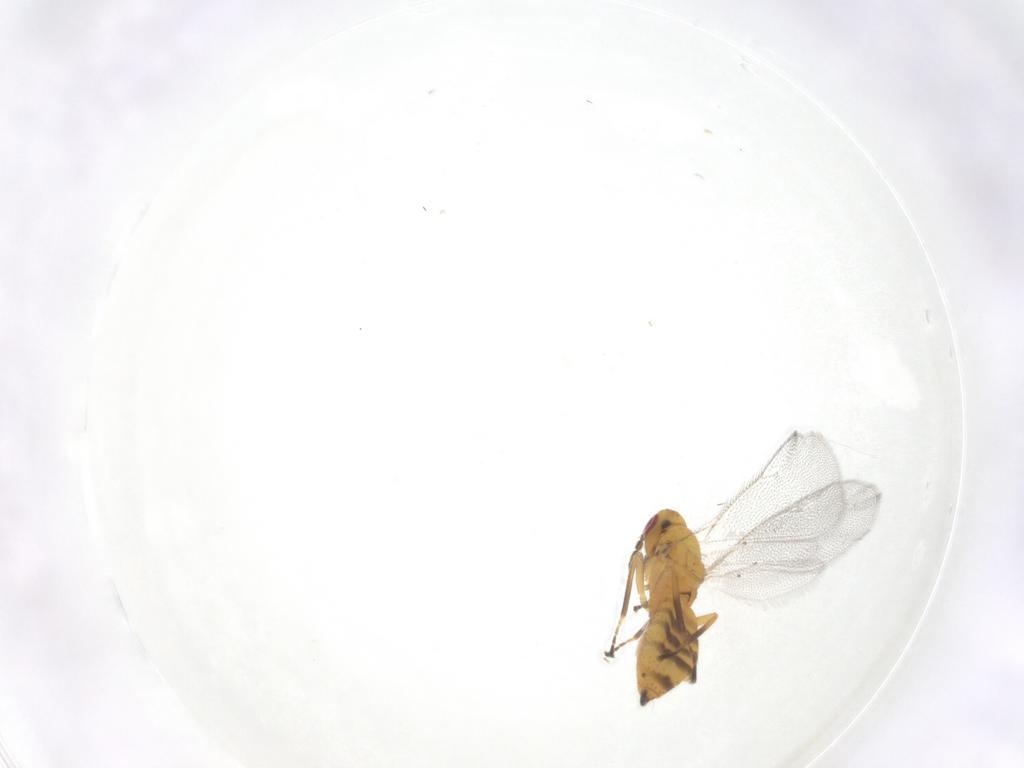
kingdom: Animalia
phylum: Arthropoda
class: Insecta
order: Hymenoptera
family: Eulophidae
